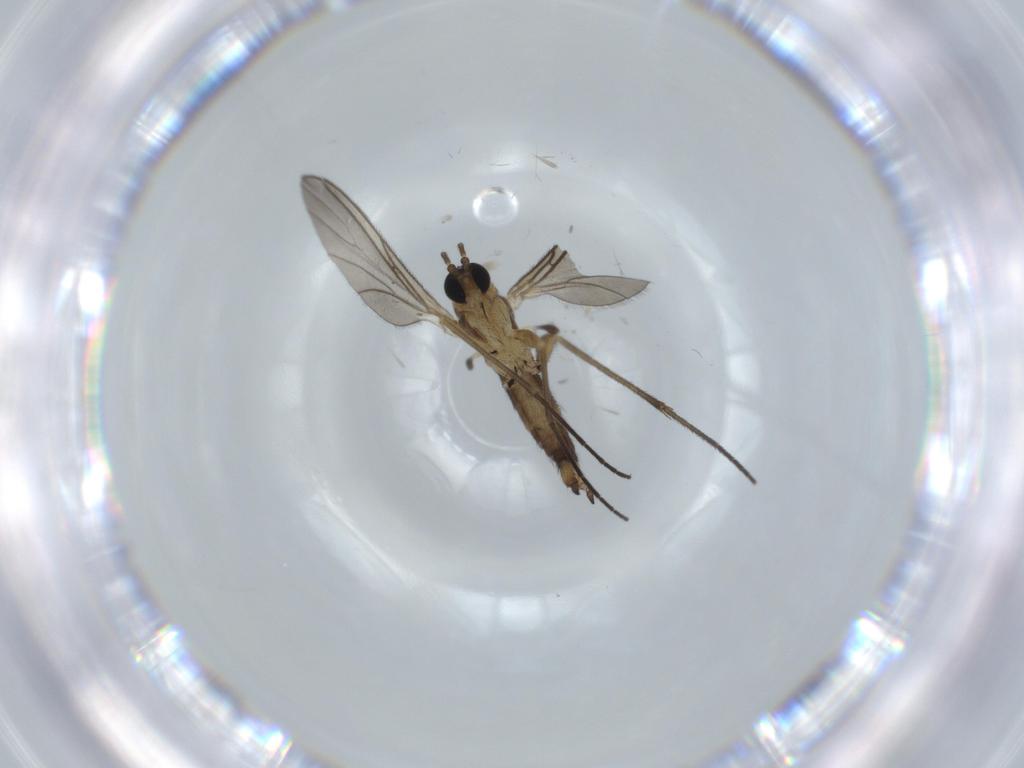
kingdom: Animalia
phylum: Arthropoda
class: Insecta
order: Diptera
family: Phoridae
